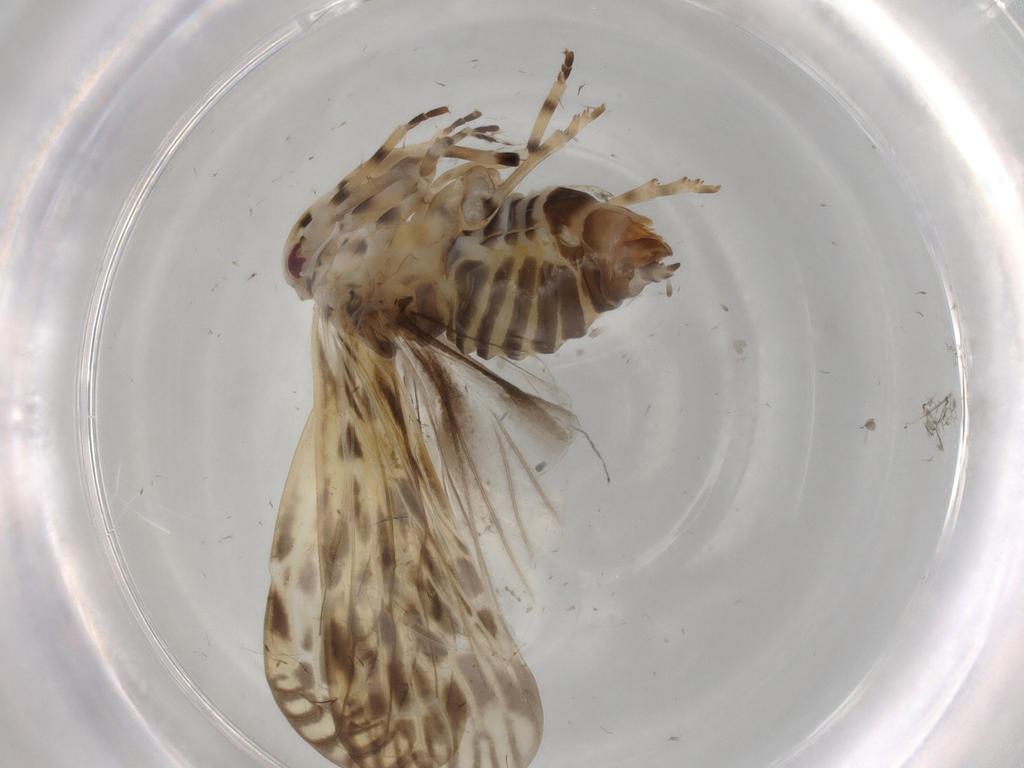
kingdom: Animalia
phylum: Arthropoda
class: Insecta
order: Hemiptera
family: Derbidae
